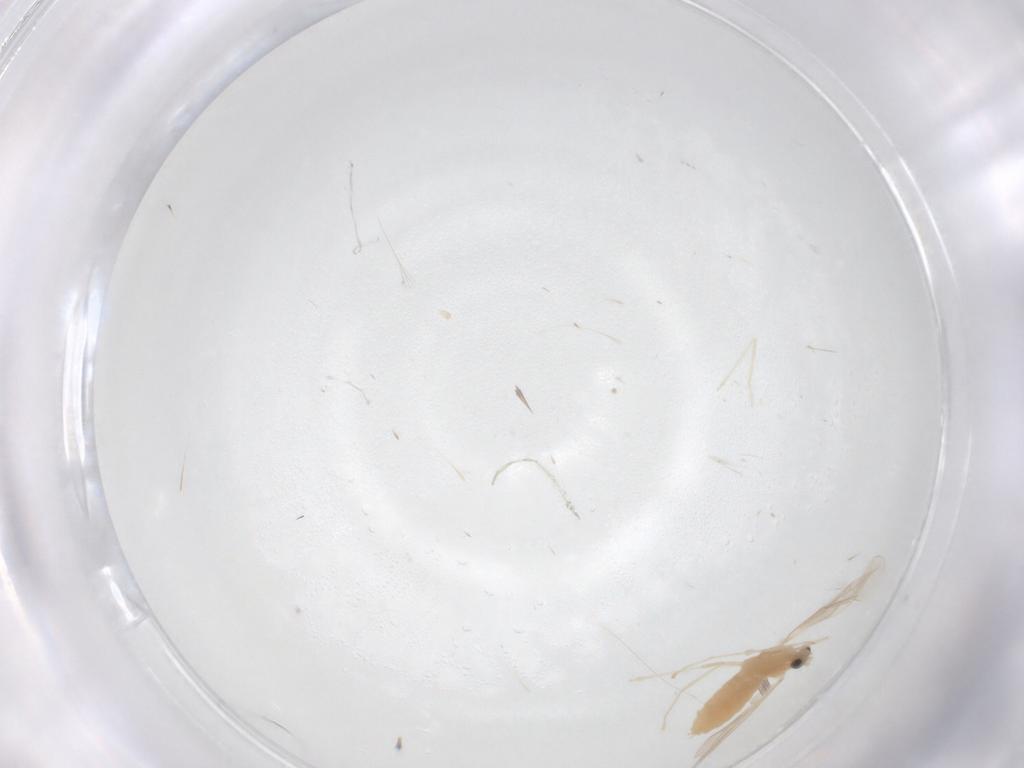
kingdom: Animalia
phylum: Arthropoda
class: Insecta
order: Diptera
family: Cecidomyiidae
